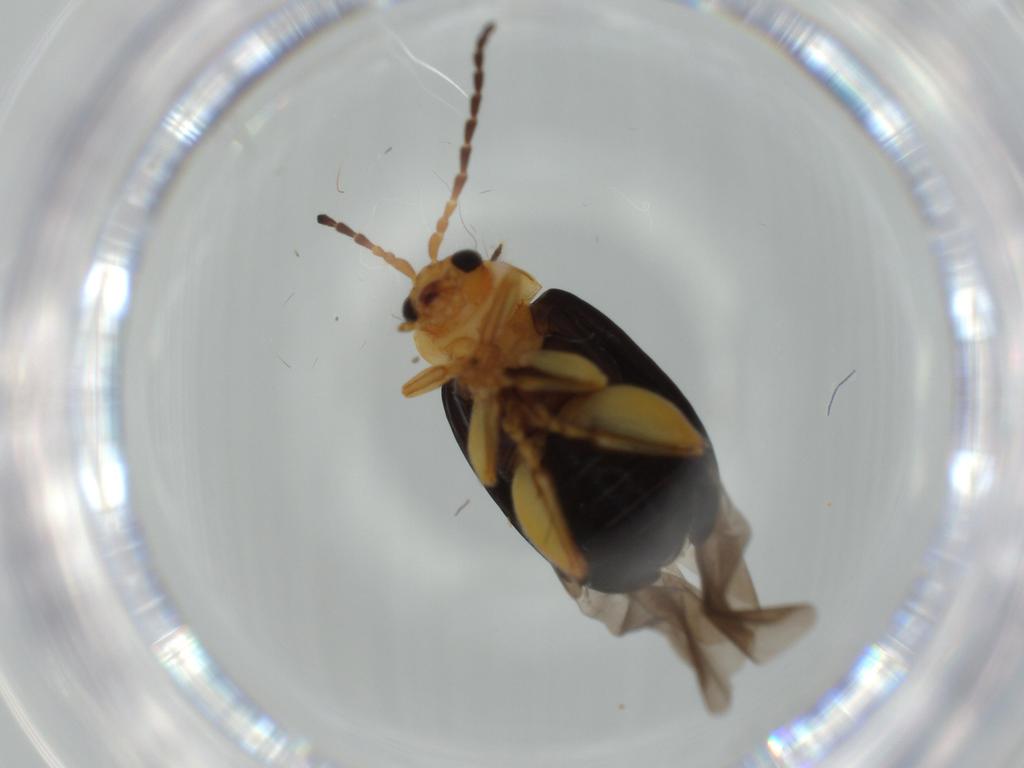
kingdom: Animalia
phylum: Arthropoda
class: Insecta
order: Coleoptera
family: Chrysomelidae
